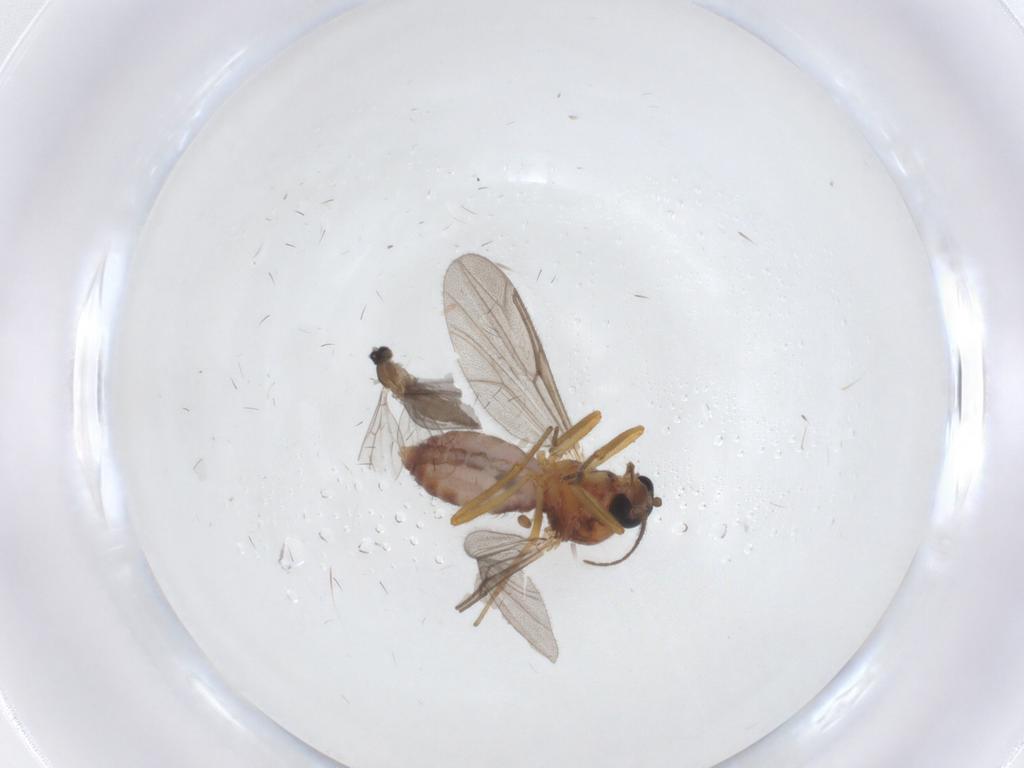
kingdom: Animalia
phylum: Arthropoda
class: Insecta
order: Diptera
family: Ceratopogonidae
